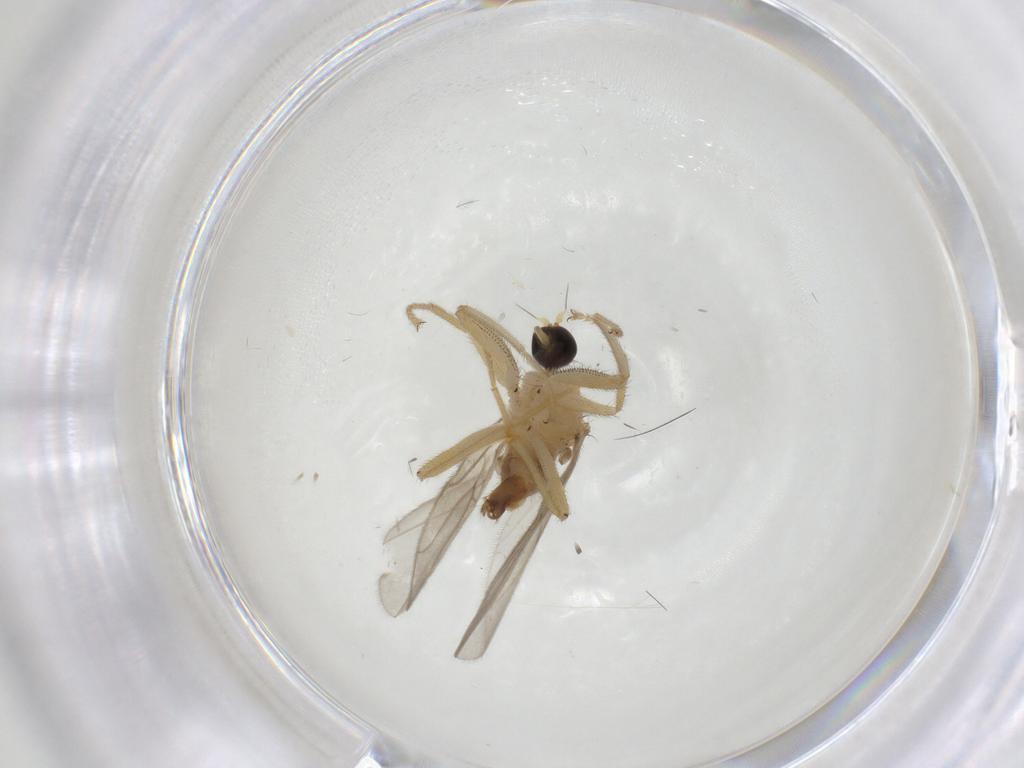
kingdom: Animalia
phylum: Arthropoda
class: Insecta
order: Diptera
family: Hybotidae
